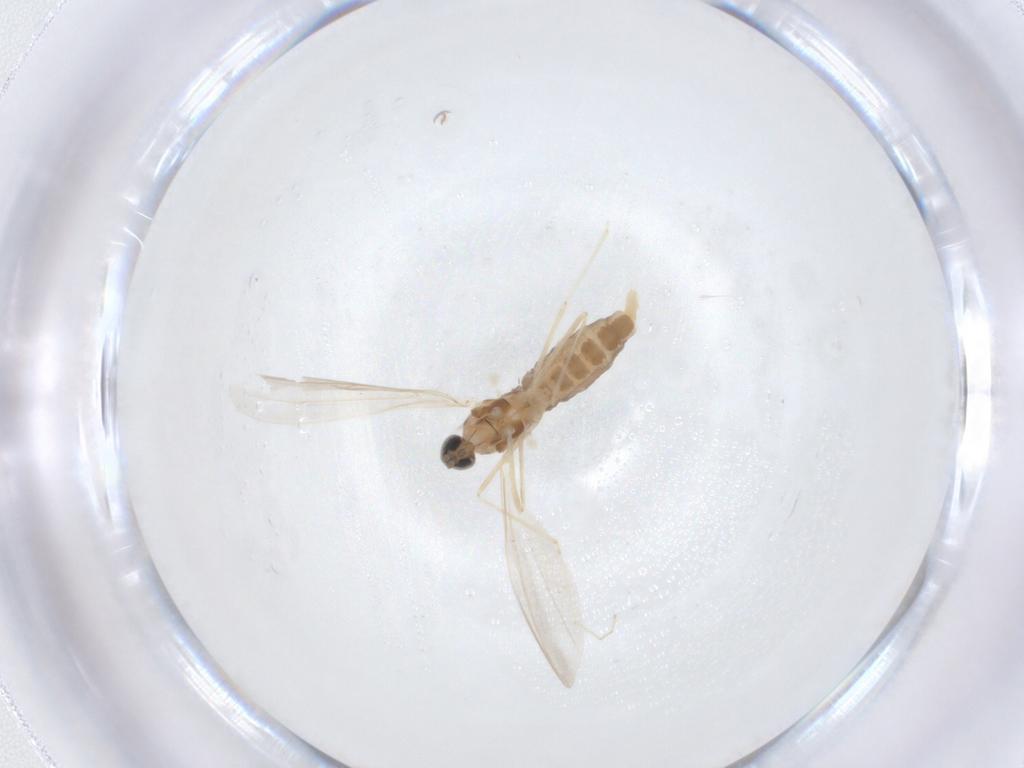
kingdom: Animalia
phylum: Arthropoda
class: Insecta
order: Diptera
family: Cecidomyiidae
